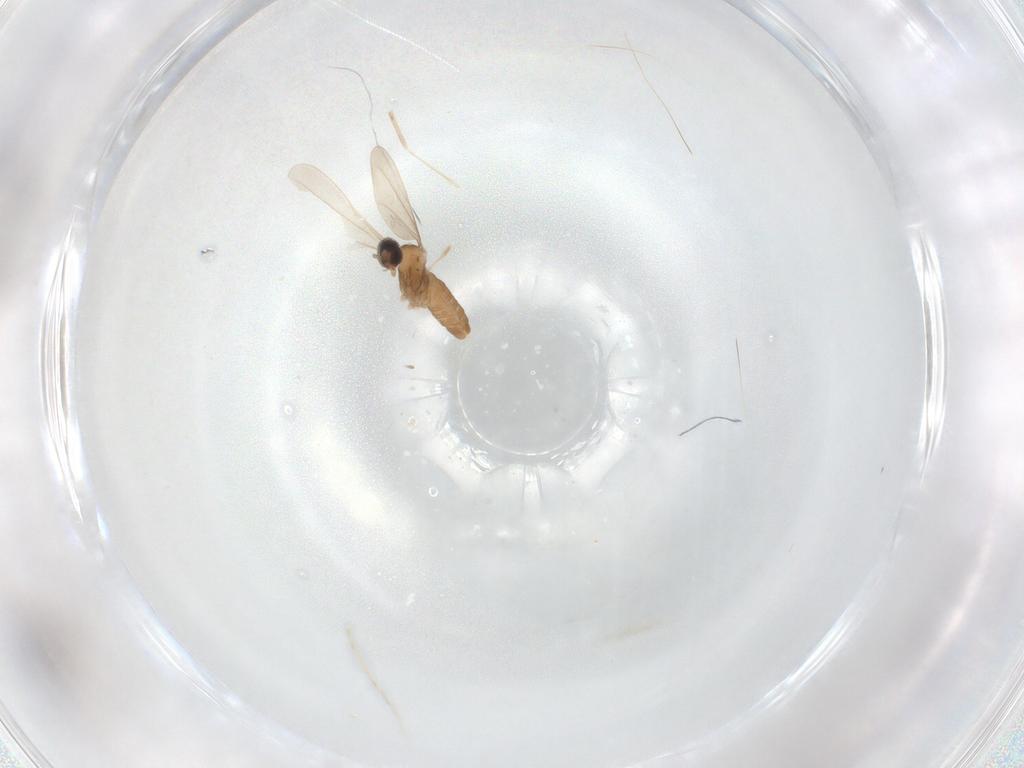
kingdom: Animalia
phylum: Arthropoda
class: Insecta
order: Diptera
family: Cecidomyiidae
